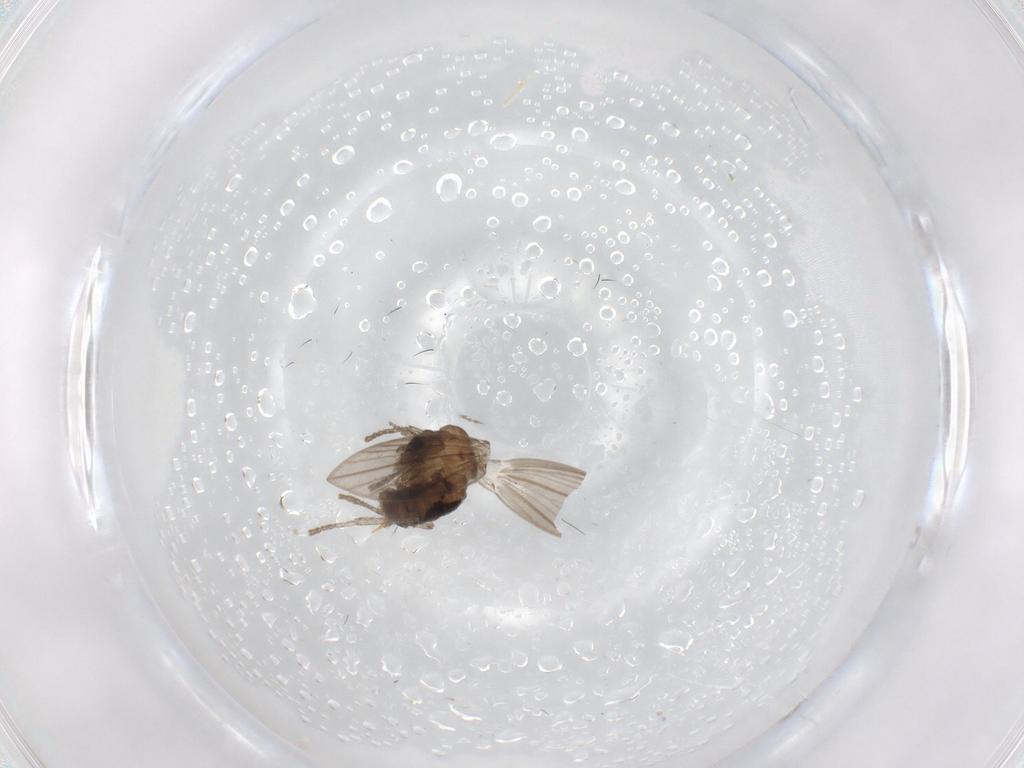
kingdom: Animalia
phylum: Arthropoda
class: Insecta
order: Diptera
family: Psychodidae
